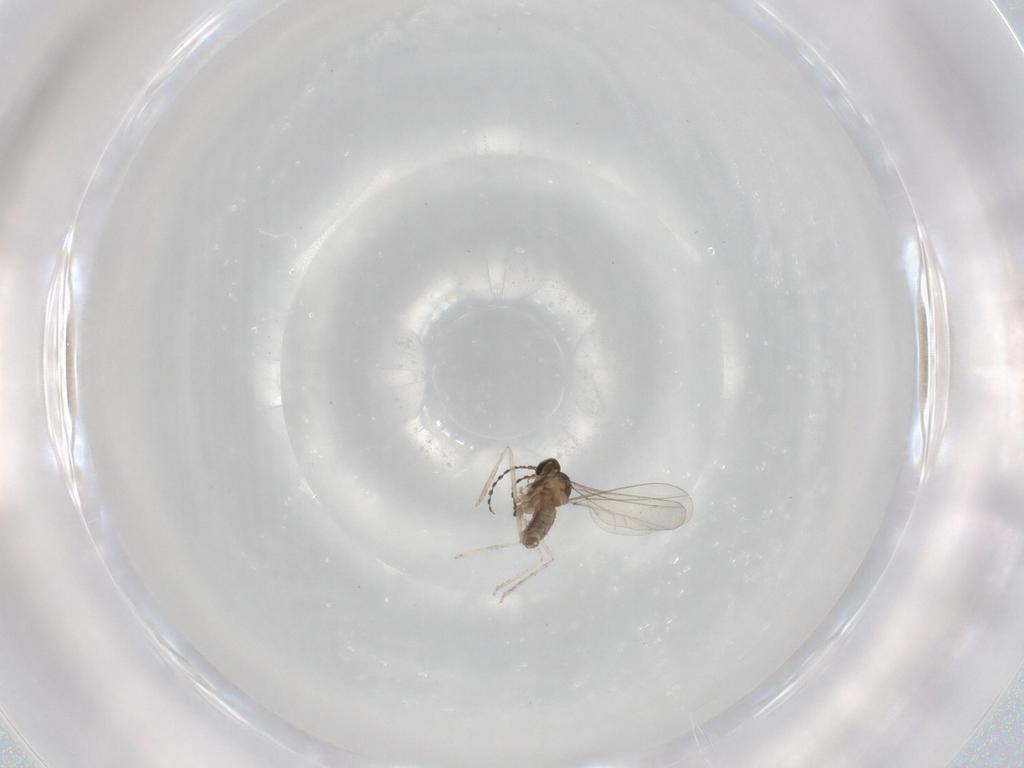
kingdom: Animalia
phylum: Arthropoda
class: Insecta
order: Diptera
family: Cecidomyiidae
